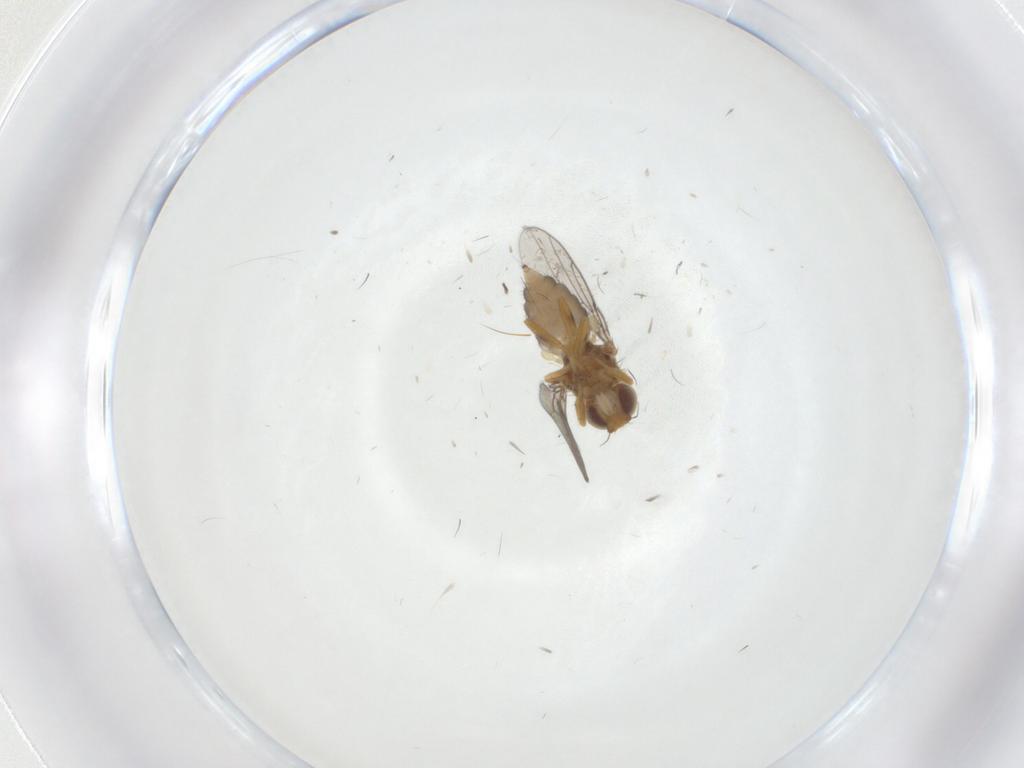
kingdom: Animalia
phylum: Arthropoda
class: Insecta
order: Diptera
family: Chloropidae
